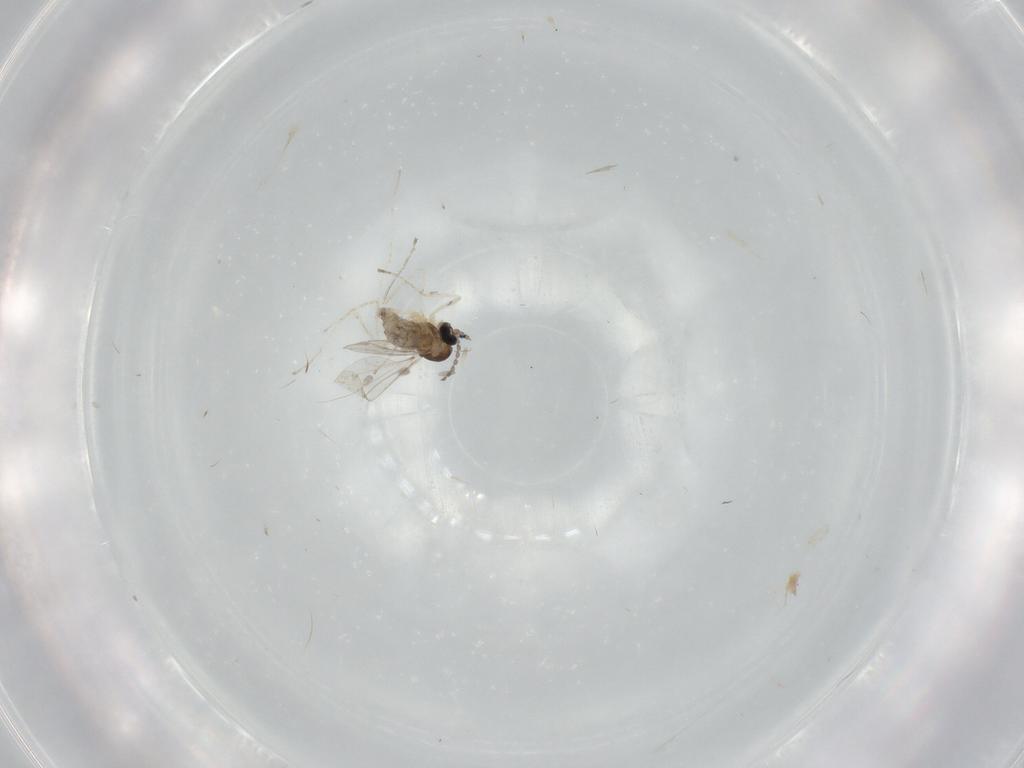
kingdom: Animalia
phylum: Arthropoda
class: Insecta
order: Diptera
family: Cecidomyiidae
